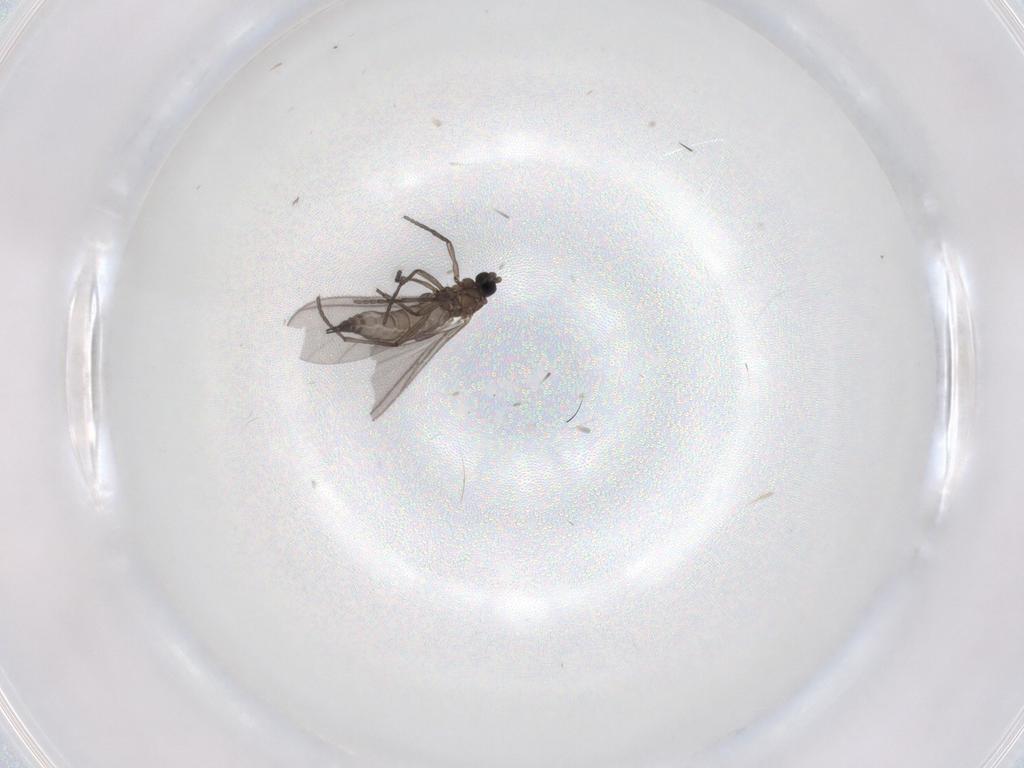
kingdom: Animalia
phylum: Arthropoda
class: Insecta
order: Diptera
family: Sciaridae
